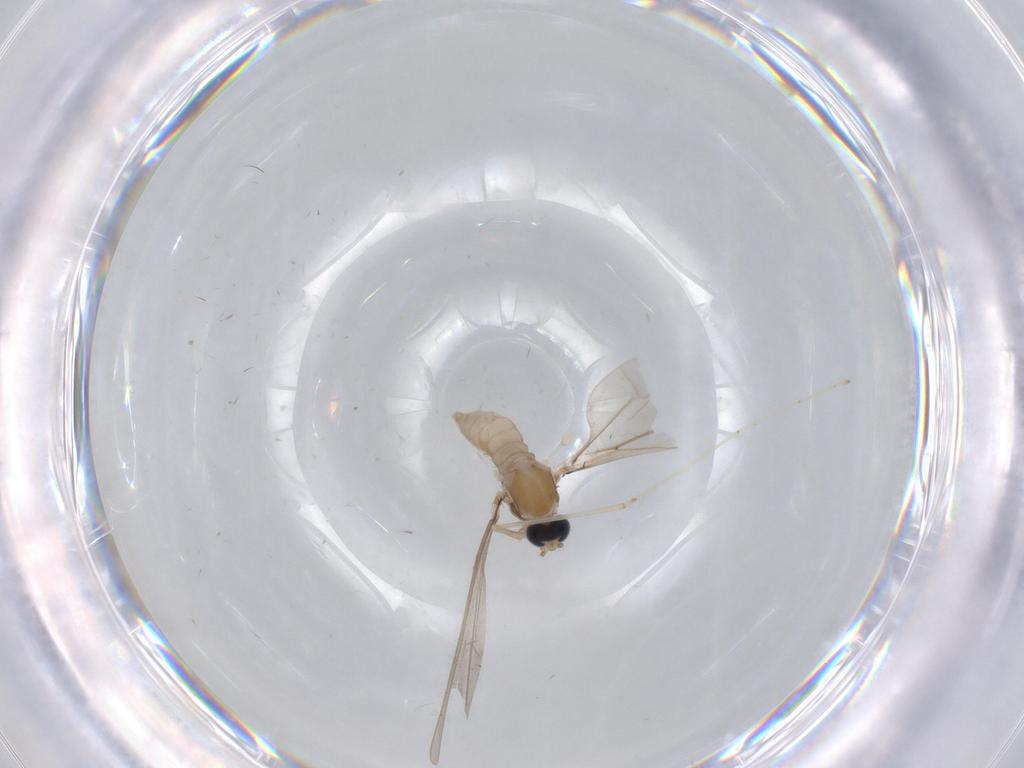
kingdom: Animalia
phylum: Arthropoda
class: Insecta
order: Diptera
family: Cecidomyiidae
